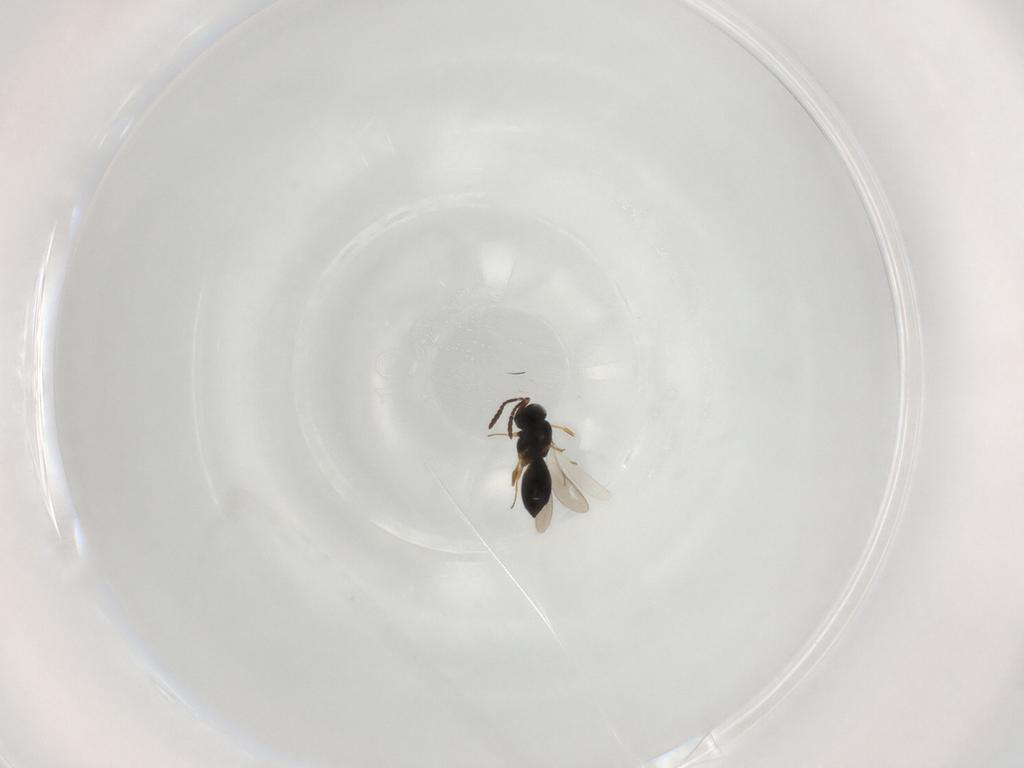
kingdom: Animalia
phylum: Arthropoda
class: Insecta
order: Hymenoptera
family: Scelionidae
